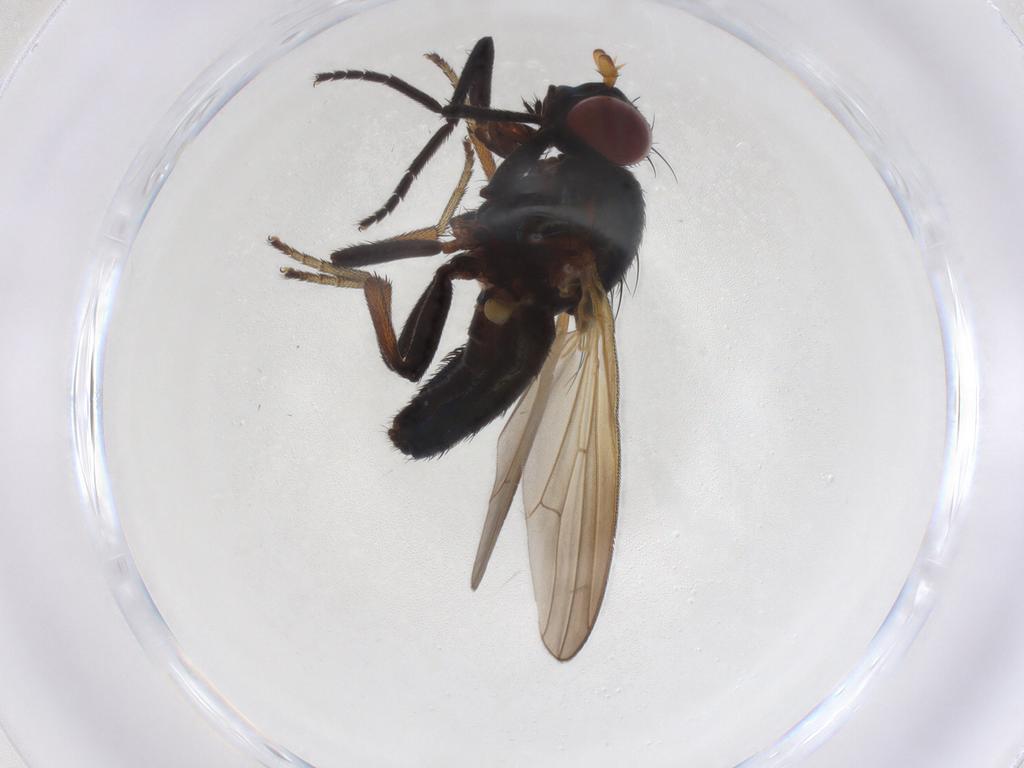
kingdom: Animalia
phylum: Arthropoda
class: Insecta
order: Diptera
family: Lauxaniidae
